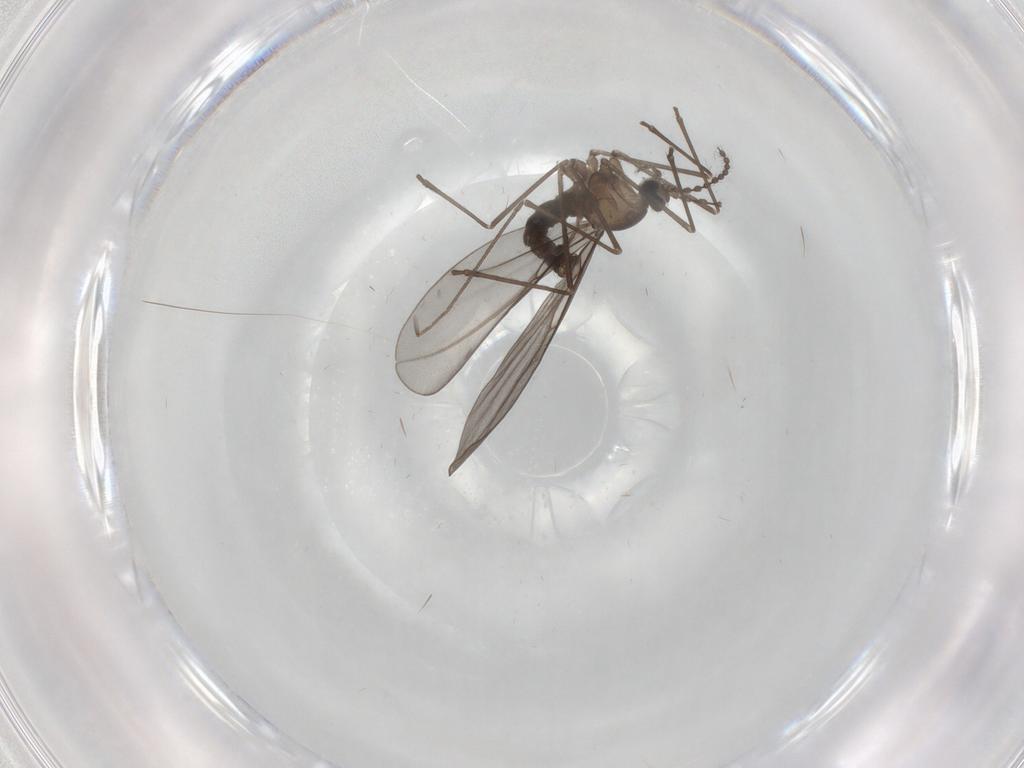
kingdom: Animalia
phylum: Arthropoda
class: Insecta
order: Diptera
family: Cecidomyiidae
